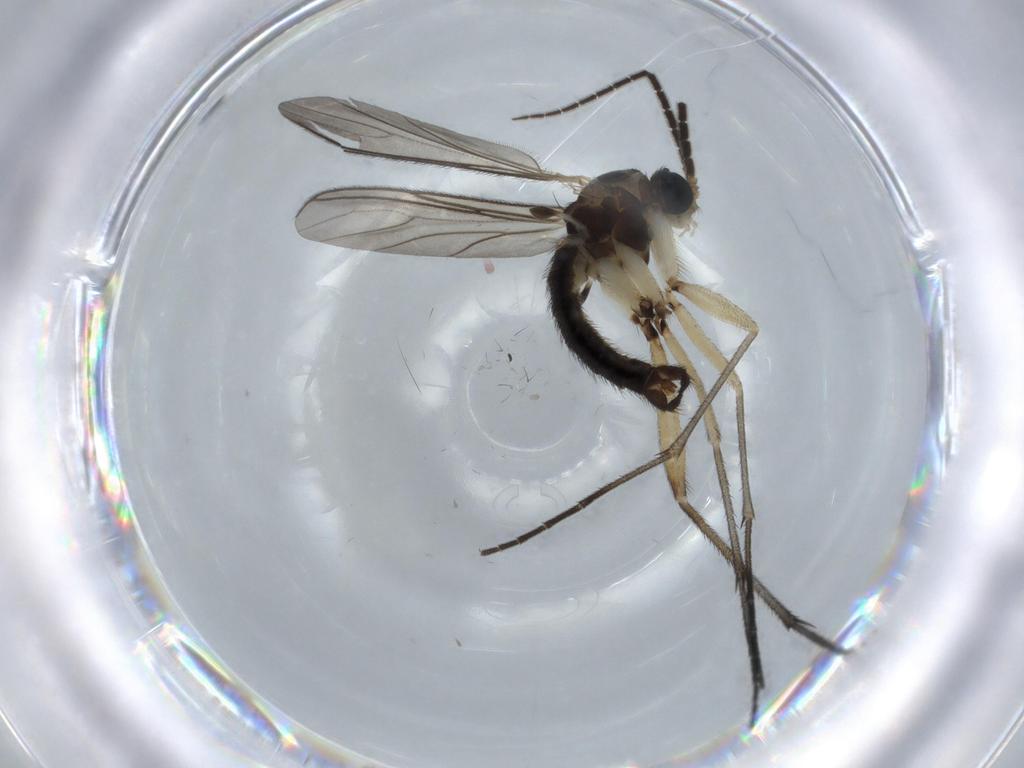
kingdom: Animalia
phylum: Arthropoda
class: Insecta
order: Diptera
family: Sciaridae
